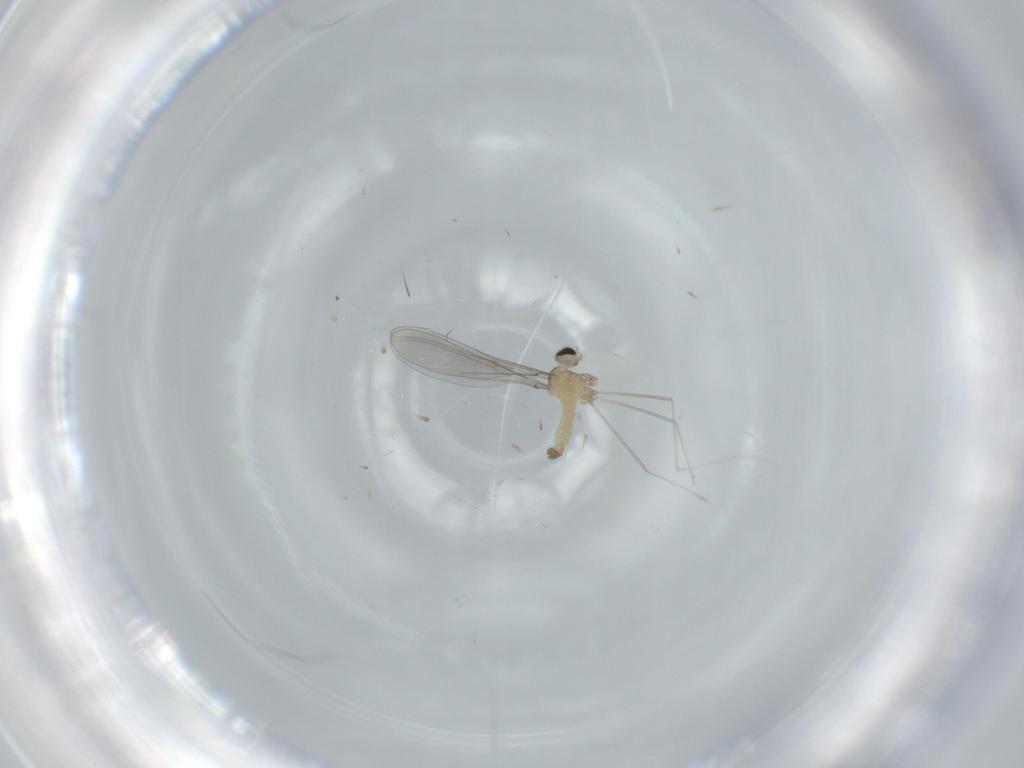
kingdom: Animalia
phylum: Arthropoda
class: Insecta
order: Diptera
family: Cecidomyiidae
